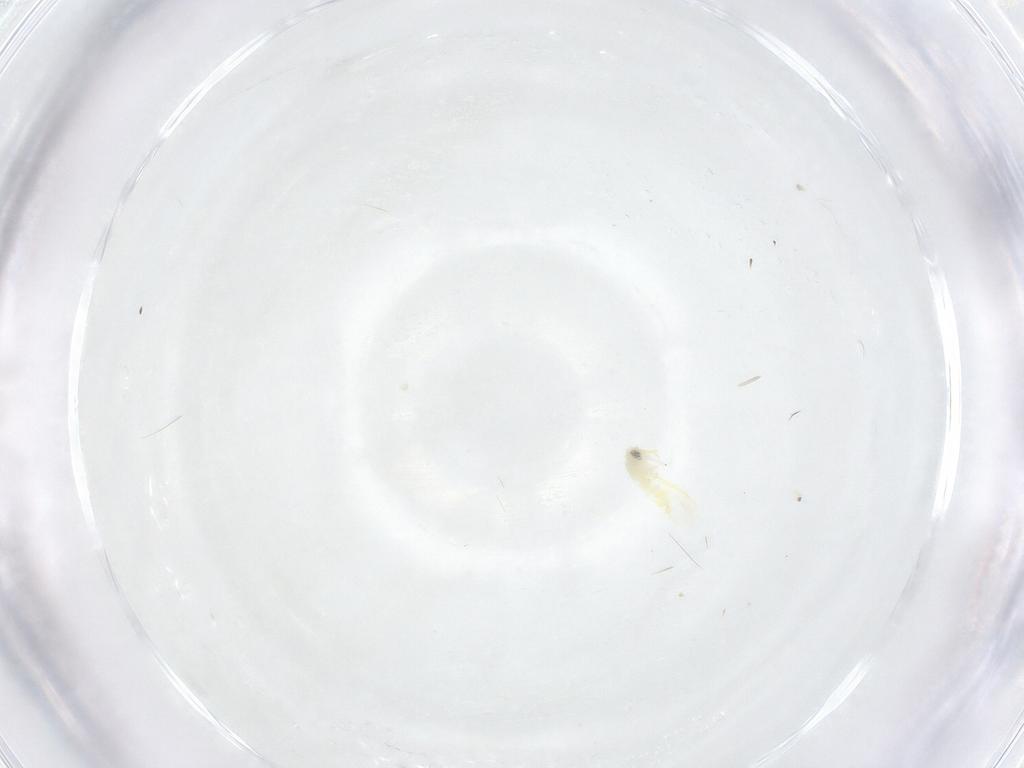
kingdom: Animalia
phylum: Arthropoda
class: Insecta
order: Hemiptera
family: Aleyrodidae
